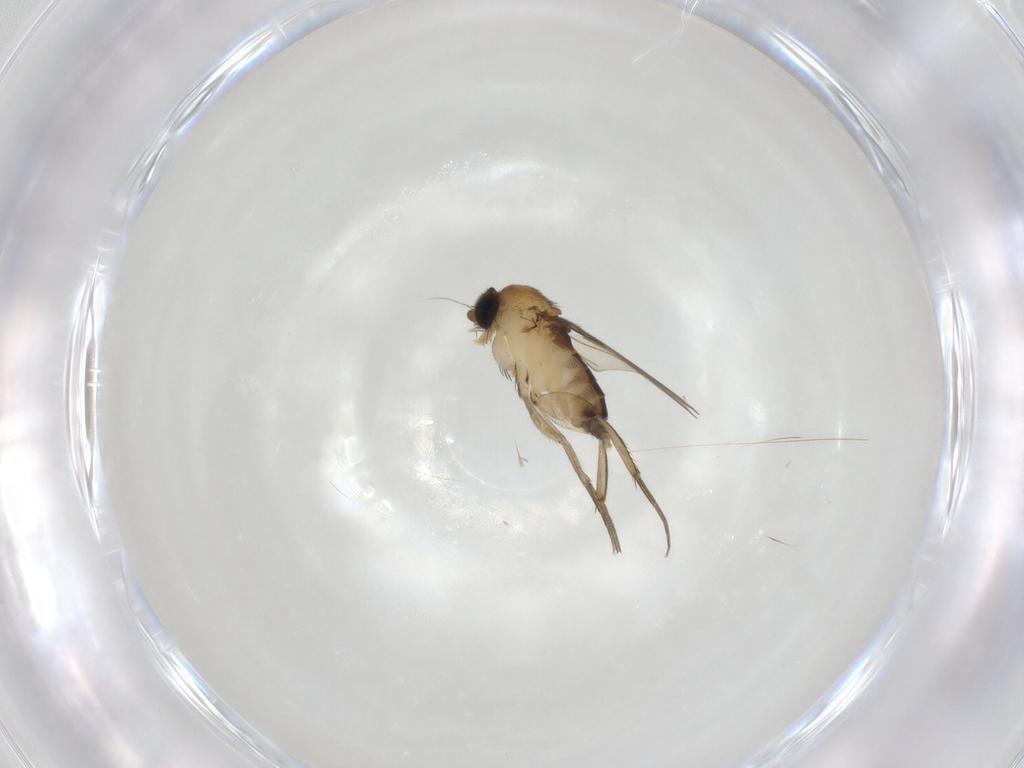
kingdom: Animalia
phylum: Arthropoda
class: Insecta
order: Diptera
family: Phoridae
